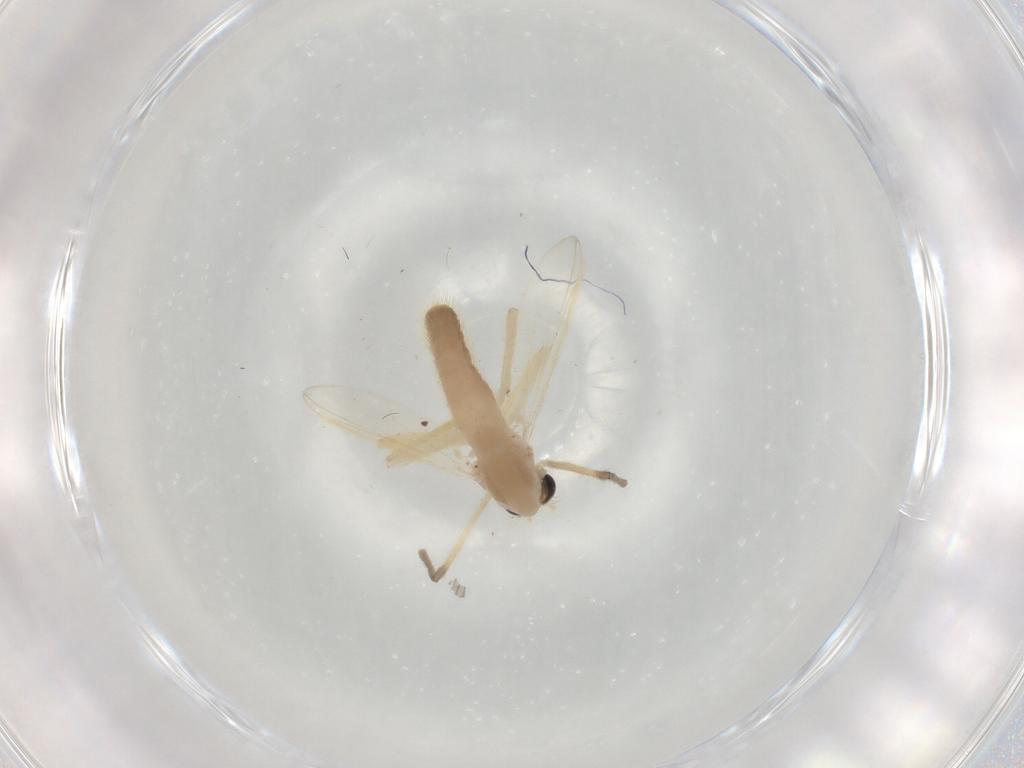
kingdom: Animalia
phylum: Arthropoda
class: Insecta
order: Diptera
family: Chironomidae
